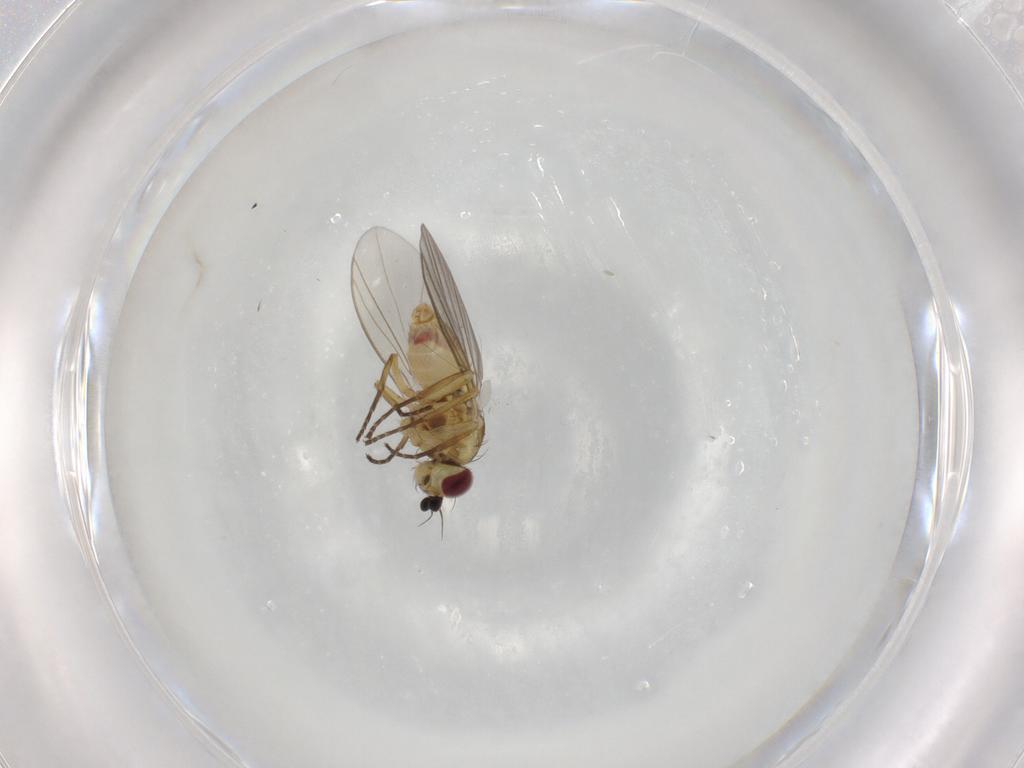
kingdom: Animalia
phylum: Arthropoda
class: Insecta
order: Diptera
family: Agromyzidae
